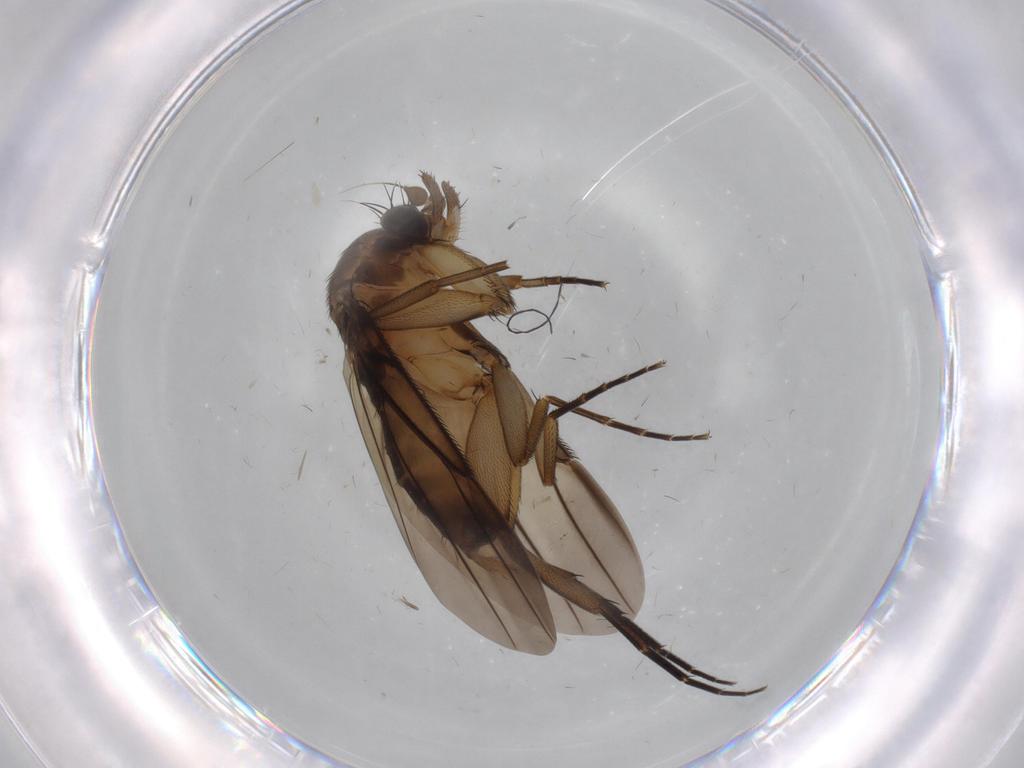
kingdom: Animalia
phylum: Arthropoda
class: Insecta
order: Diptera
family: Phoridae
